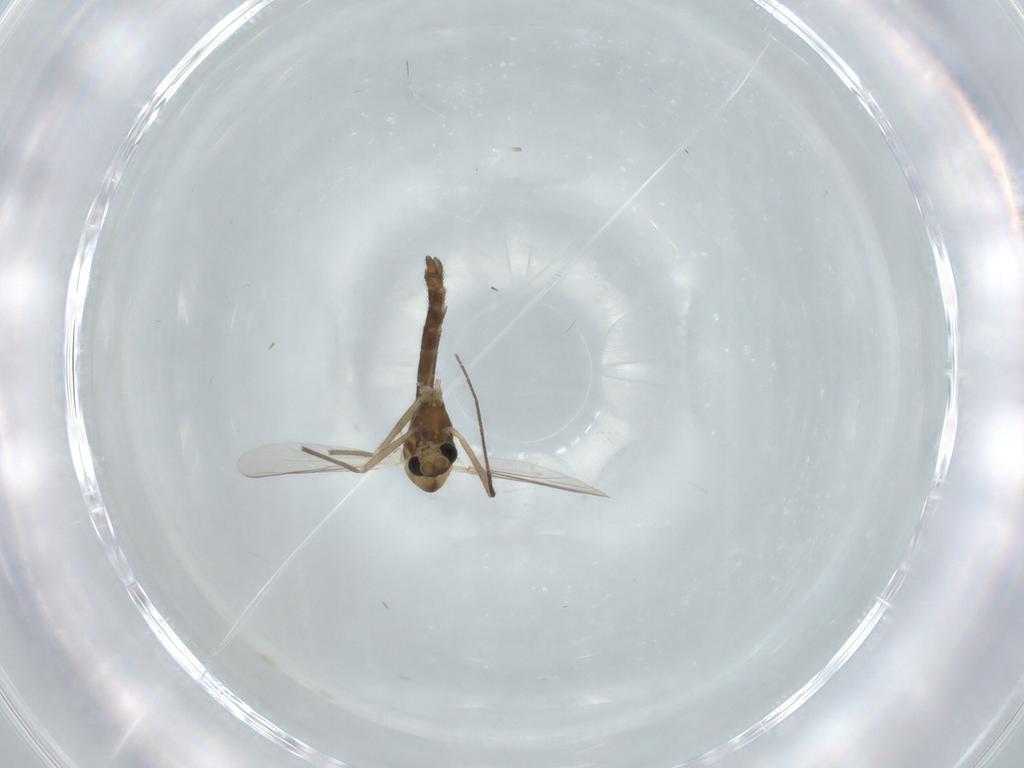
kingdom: Animalia
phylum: Arthropoda
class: Insecta
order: Diptera
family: Chironomidae
